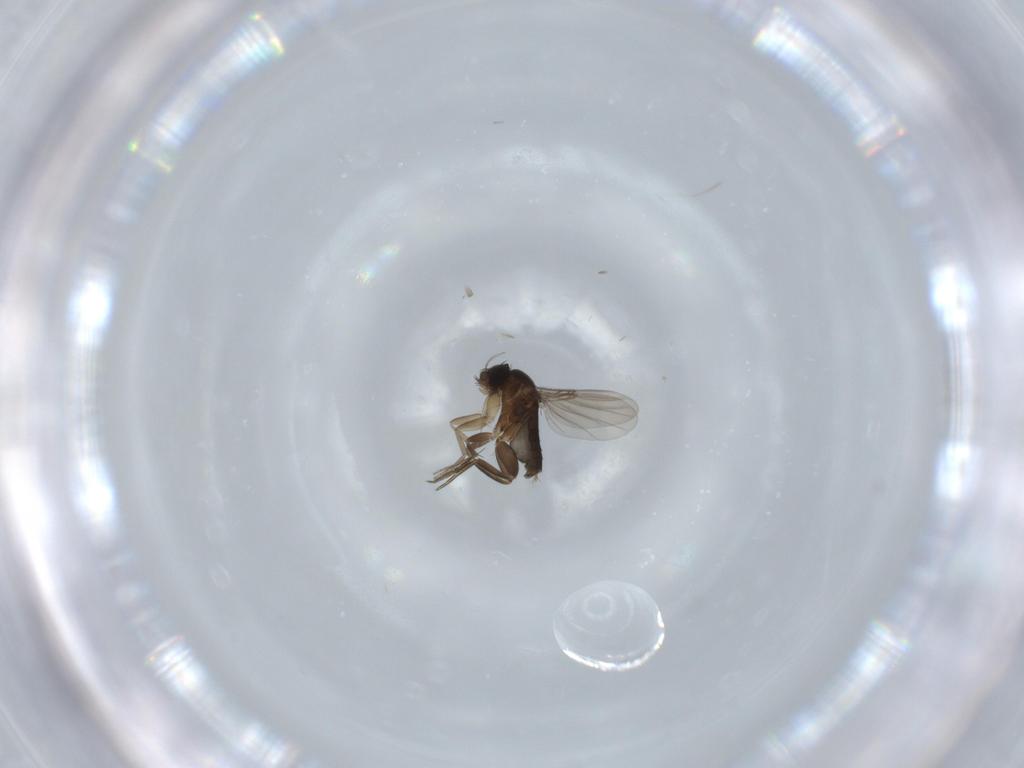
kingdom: Animalia
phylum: Arthropoda
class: Insecta
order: Diptera
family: Phoridae
